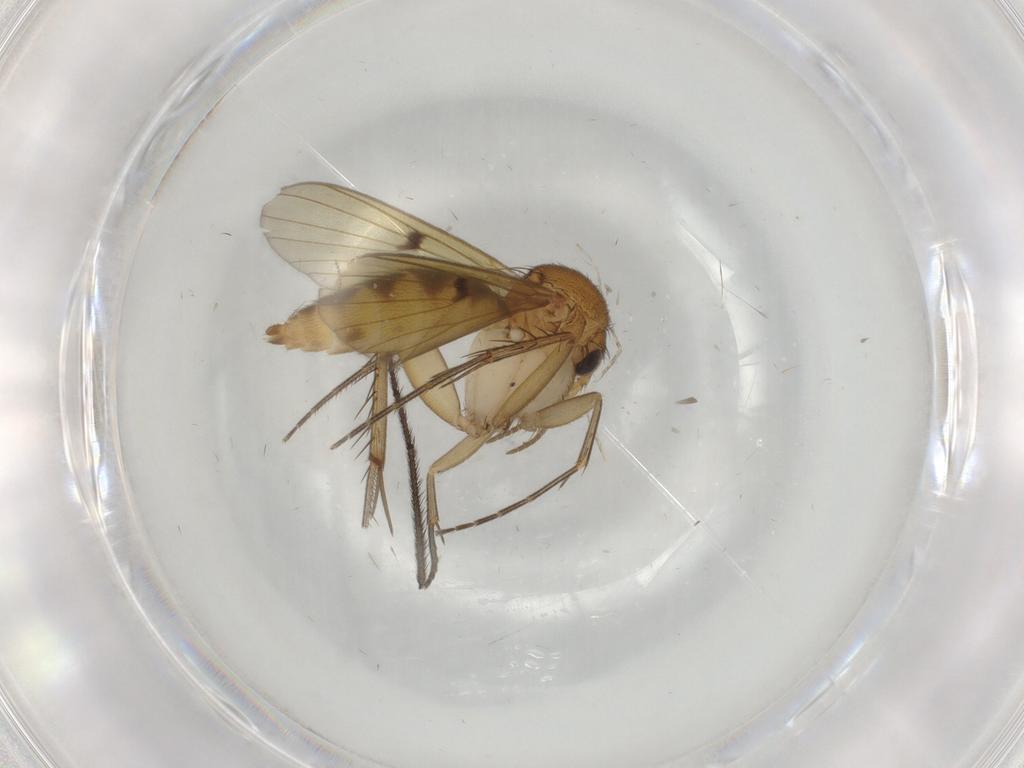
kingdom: Animalia
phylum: Arthropoda
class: Insecta
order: Diptera
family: Mycetophilidae
